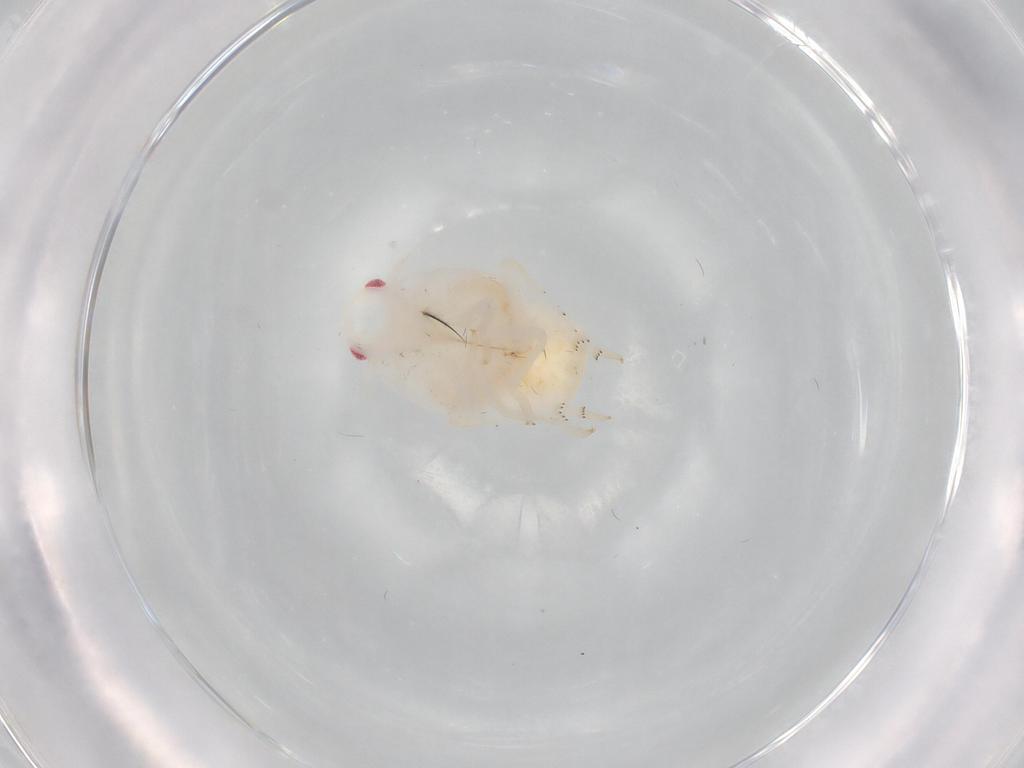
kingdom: Animalia
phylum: Arthropoda
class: Insecta
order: Hemiptera
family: Flatidae
